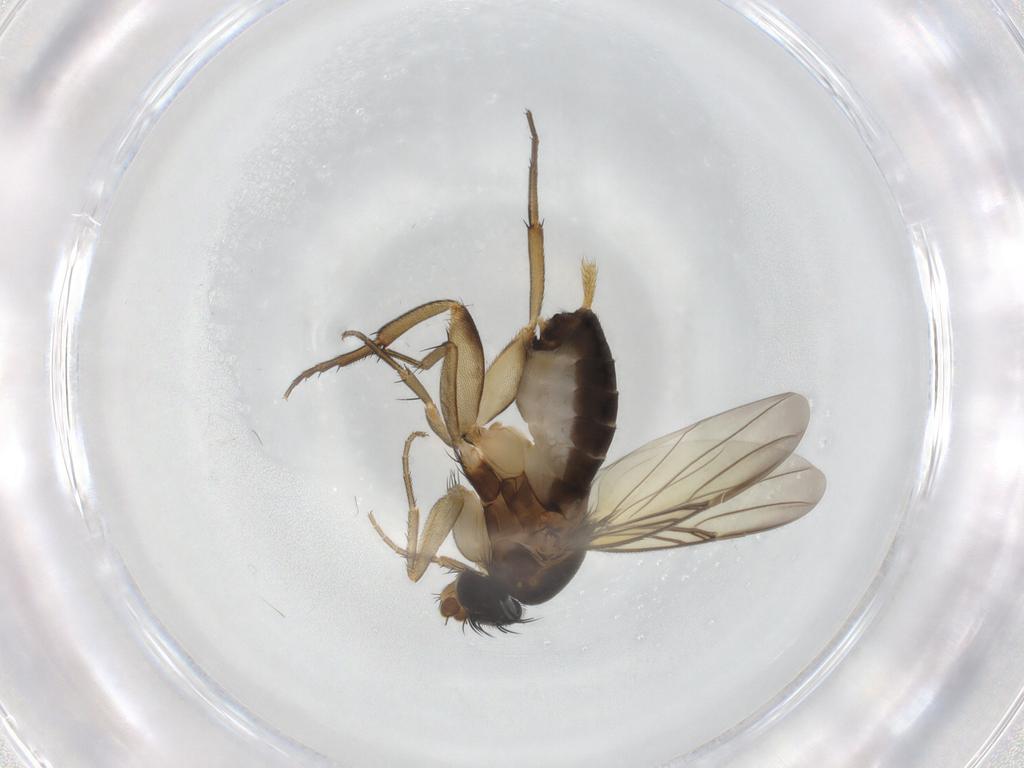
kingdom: Animalia
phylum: Arthropoda
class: Insecta
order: Diptera
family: Phoridae
